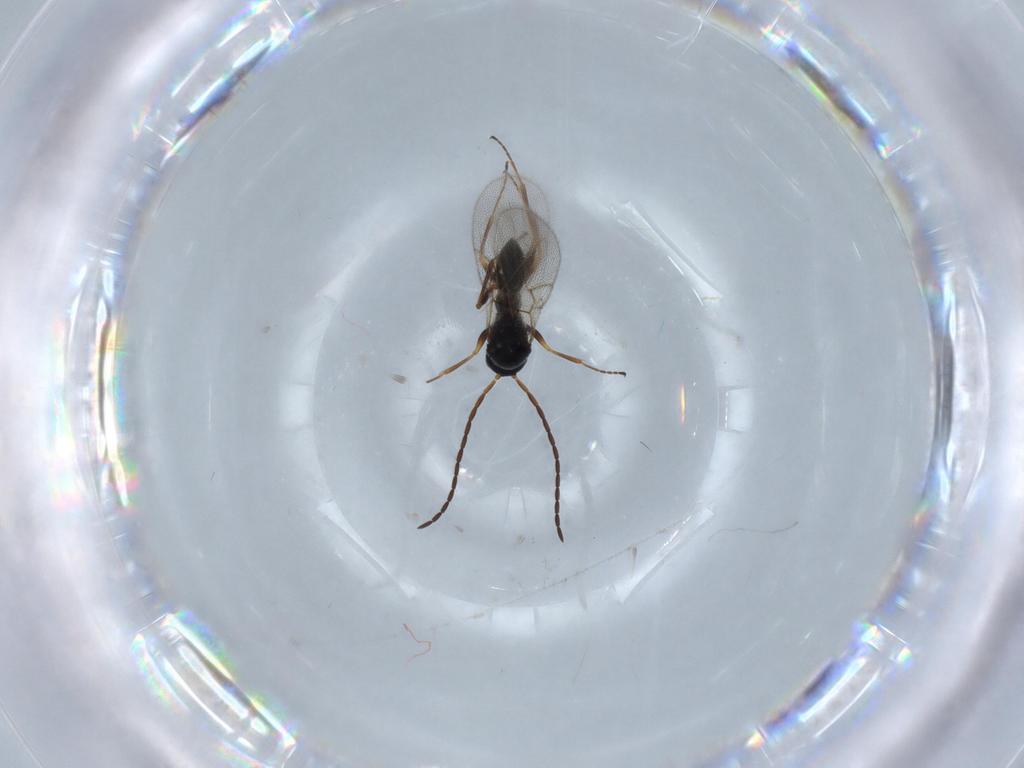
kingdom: Animalia
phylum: Arthropoda
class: Insecta
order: Hymenoptera
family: Figitidae
